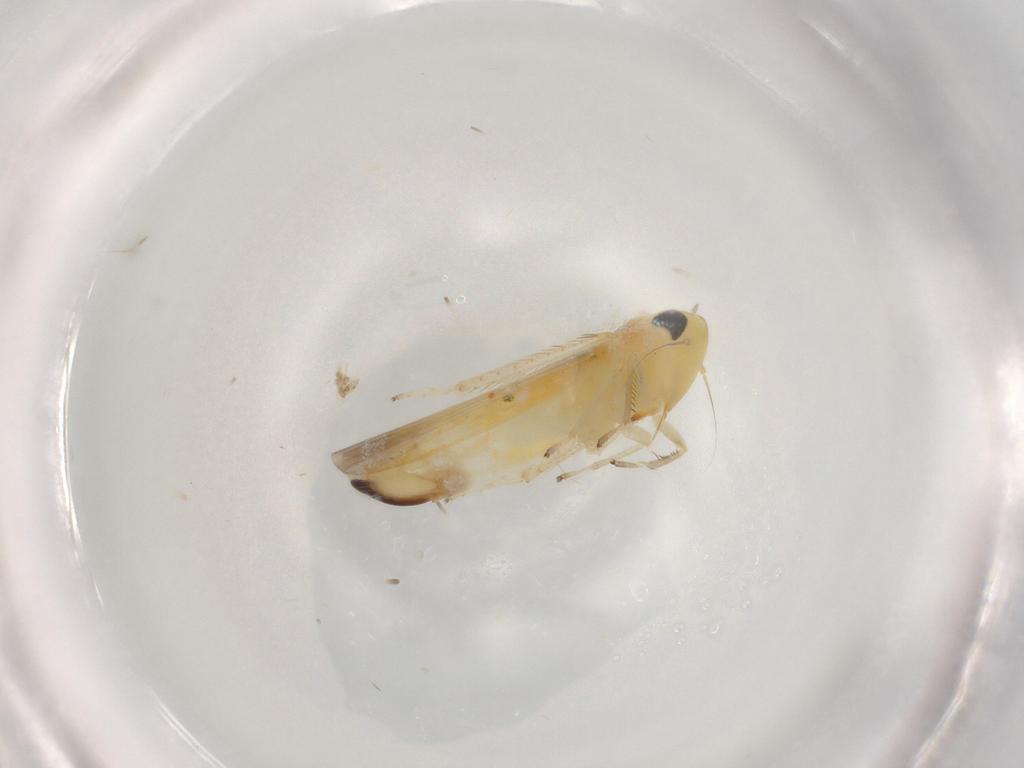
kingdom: Animalia
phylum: Arthropoda
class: Insecta
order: Hemiptera
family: Cicadellidae
